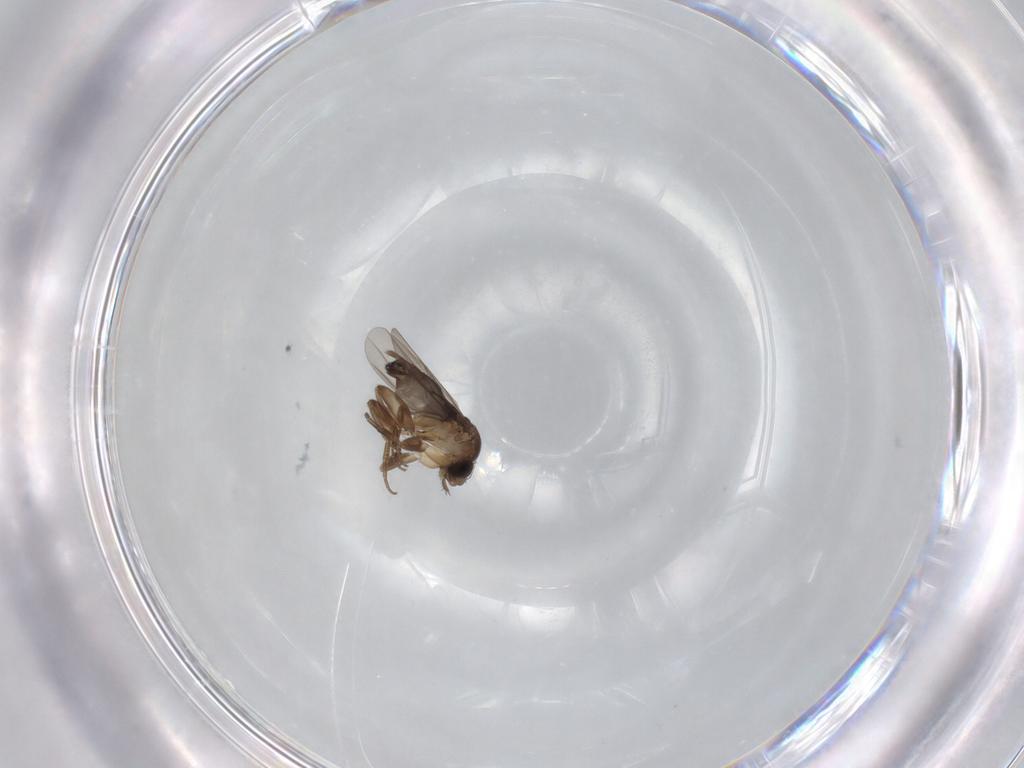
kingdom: Animalia
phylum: Arthropoda
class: Insecta
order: Diptera
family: Phoridae
